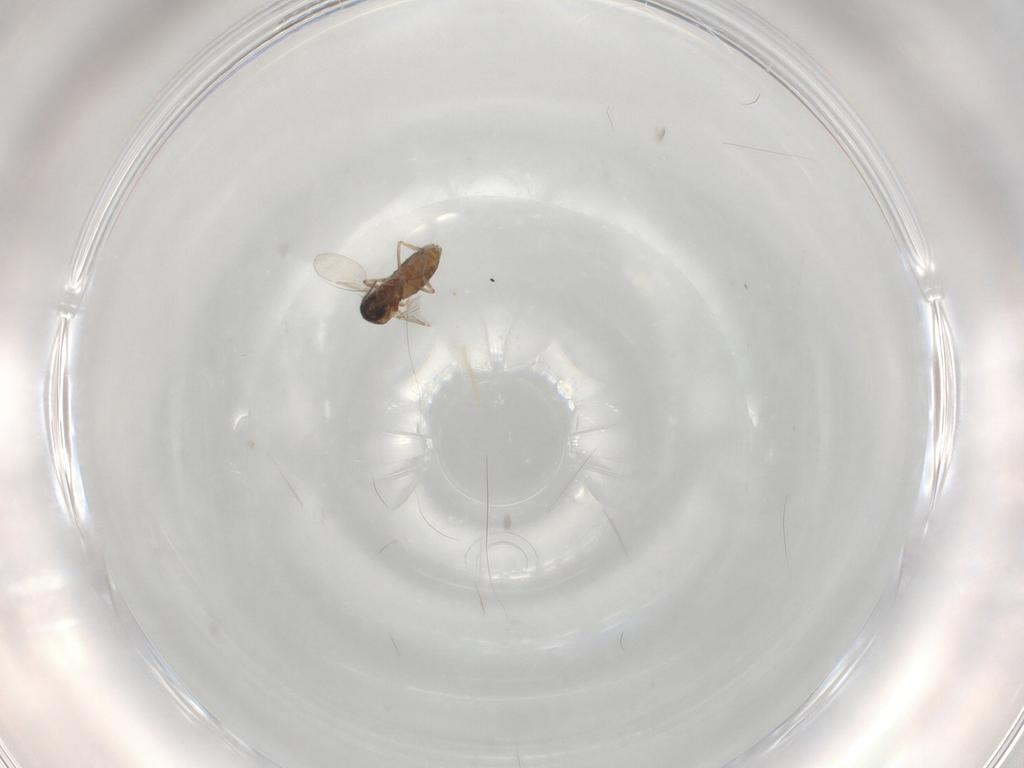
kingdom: Animalia
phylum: Arthropoda
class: Insecta
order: Diptera
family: Ceratopogonidae
